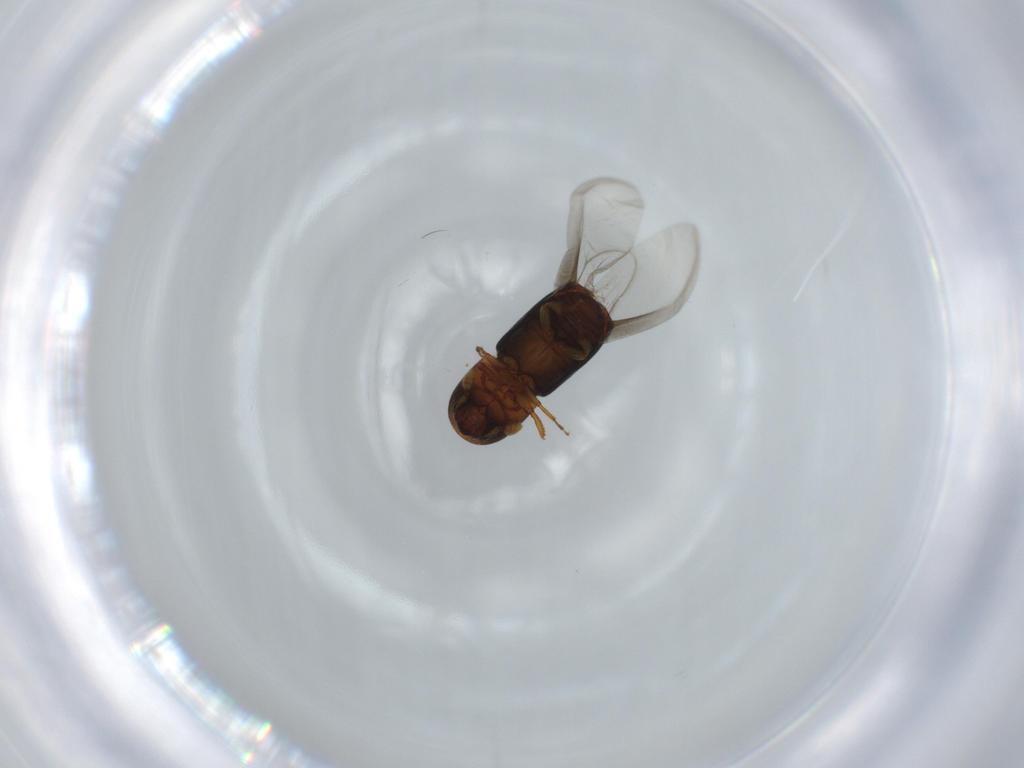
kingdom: Animalia
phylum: Arthropoda
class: Insecta
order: Coleoptera
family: Curculionidae
